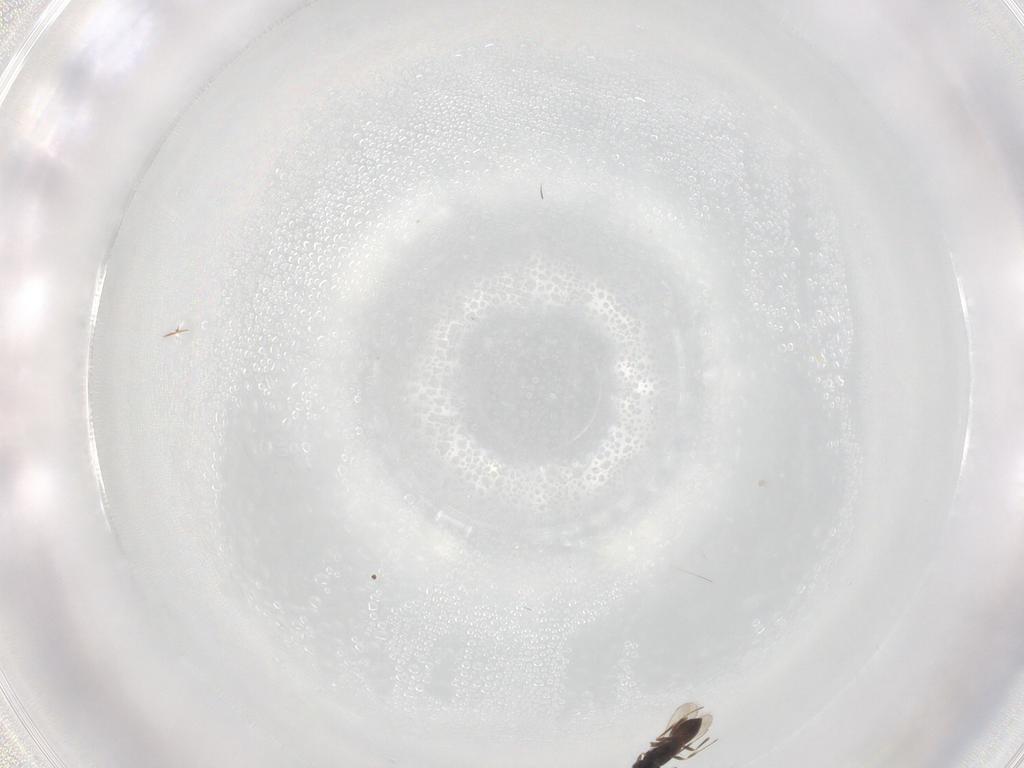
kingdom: Animalia
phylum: Arthropoda
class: Insecta
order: Hymenoptera
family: Scelionidae
